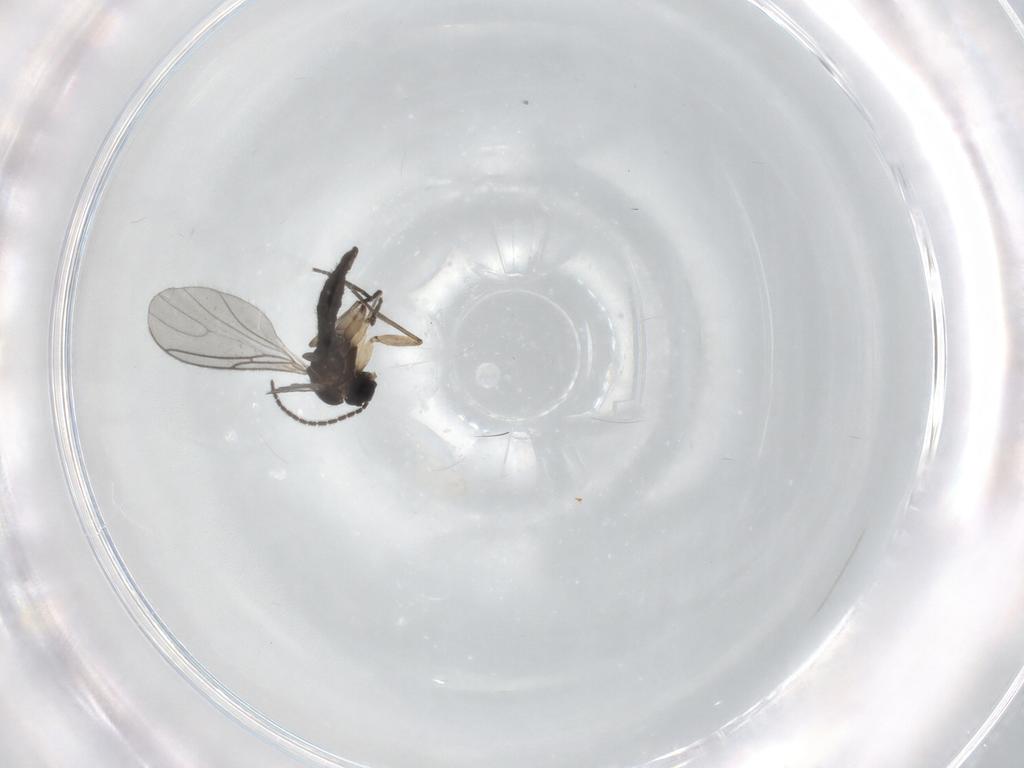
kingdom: Animalia
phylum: Arthropoda
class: Insecta
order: Diptera
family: Sciaridae
